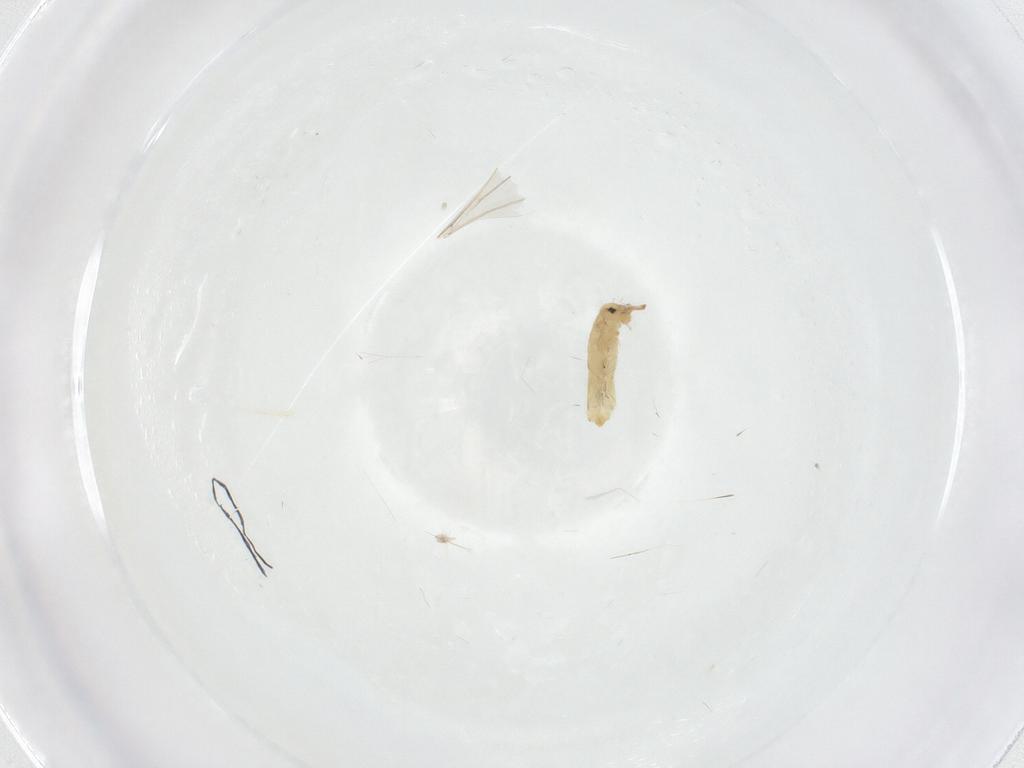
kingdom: Animalia
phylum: Arthropoda
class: Collembola
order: Entomobryomorpha
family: Entomobryidae
